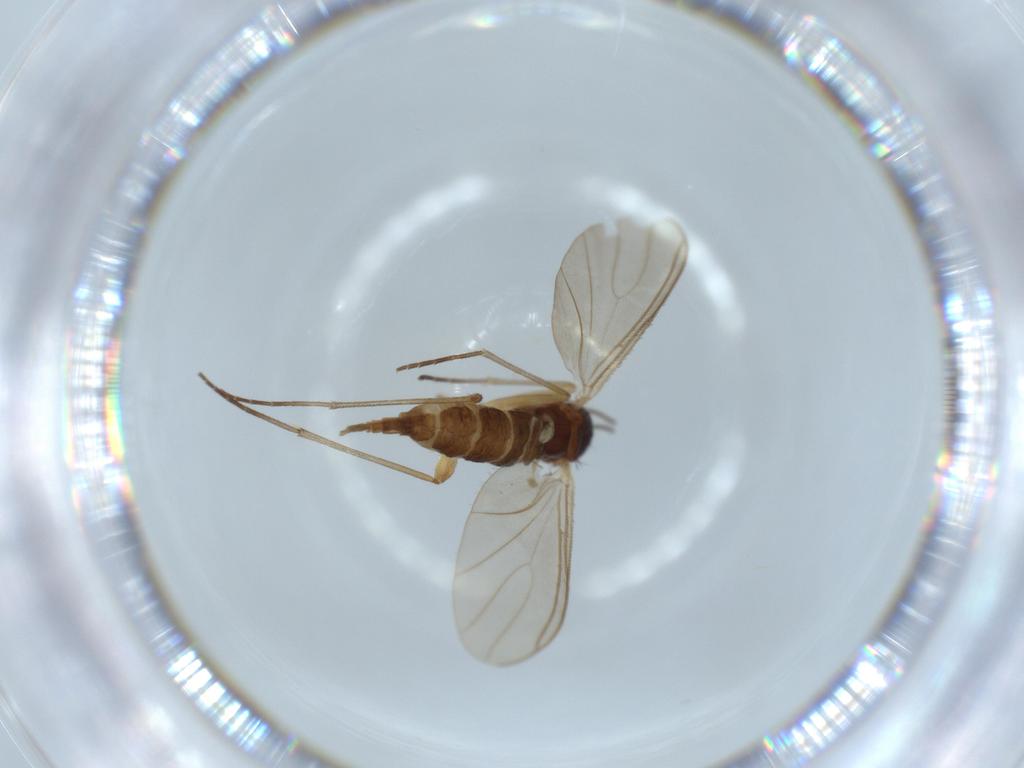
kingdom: Animalia
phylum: Arthropoda
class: Insecta
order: Diptera
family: Sciaridae
